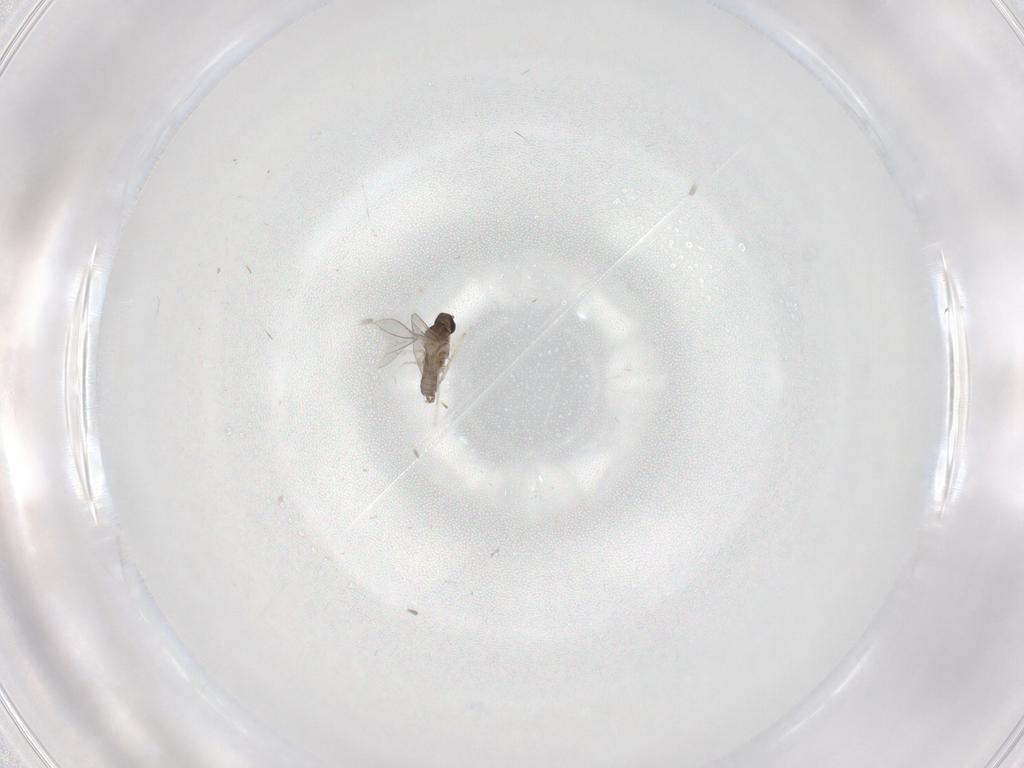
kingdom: Animalia
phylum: Arthropoda
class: Insecta
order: Diptera
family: Cecidomyiidae
